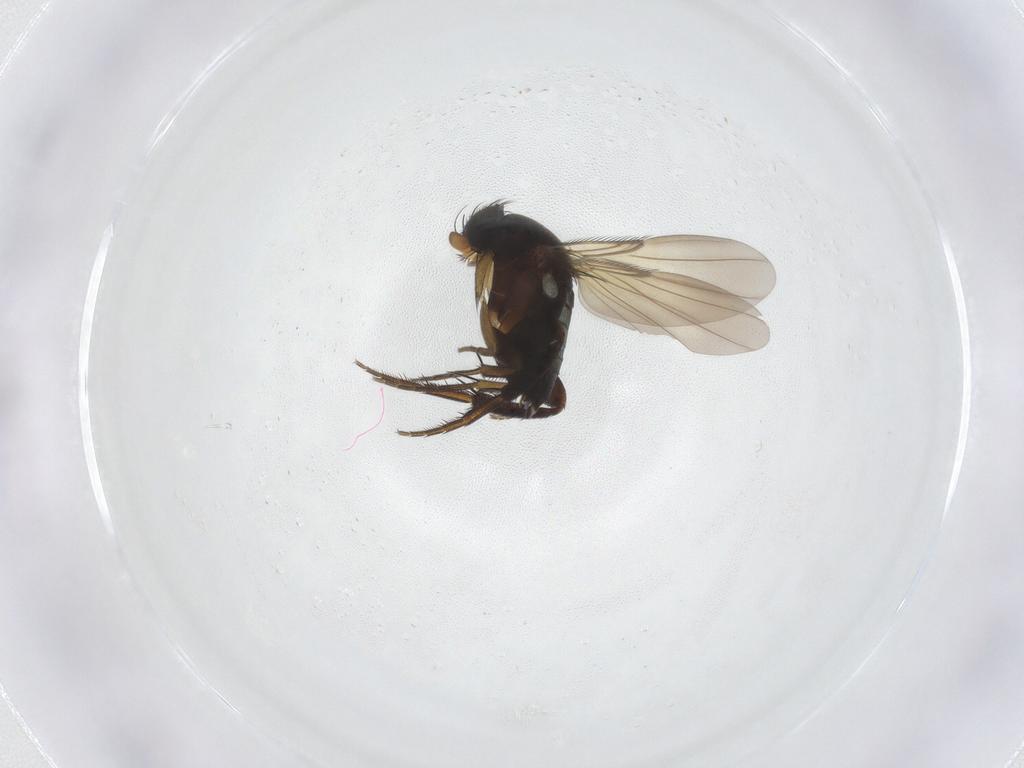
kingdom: Animalia
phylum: Arthropoda
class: Insecta
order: Diptera
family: Phoridae
